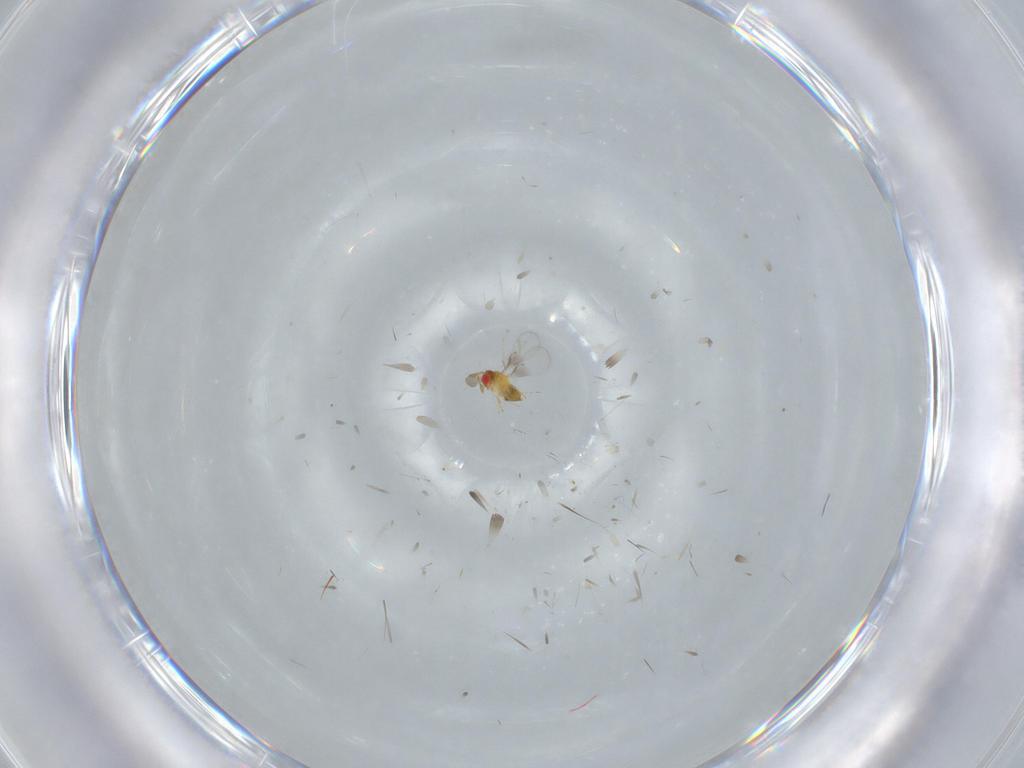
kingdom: Animalia
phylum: Arthropoda
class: Insecta
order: Hymenoptera
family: Trichogrammatidae
